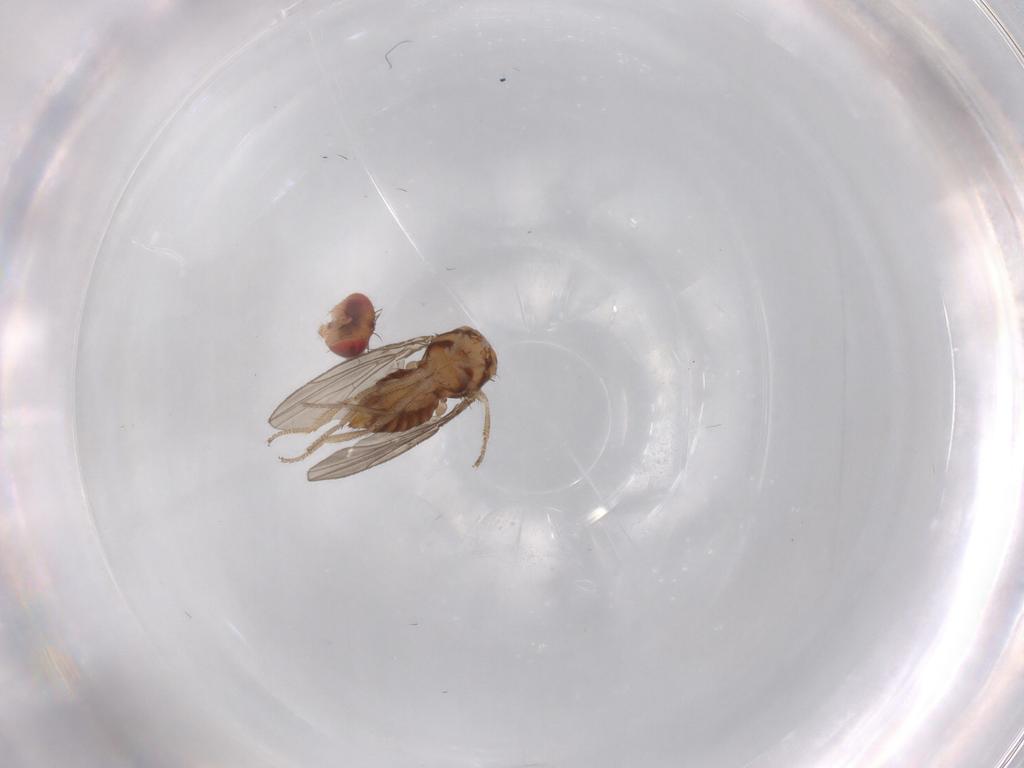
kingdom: Animalia
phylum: Arthropoda
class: Insecta
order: Diptera
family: Drosophilidae
